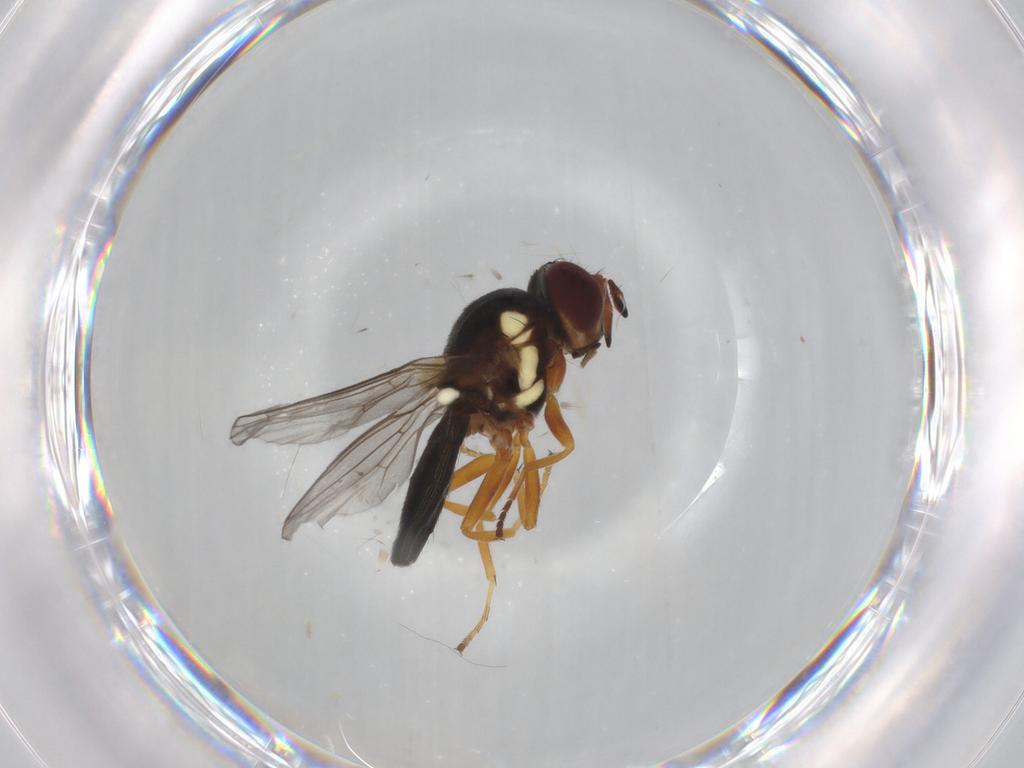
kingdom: Animalia
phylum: Arthropoda
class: Insecta
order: Diptera
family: Chloropidae
